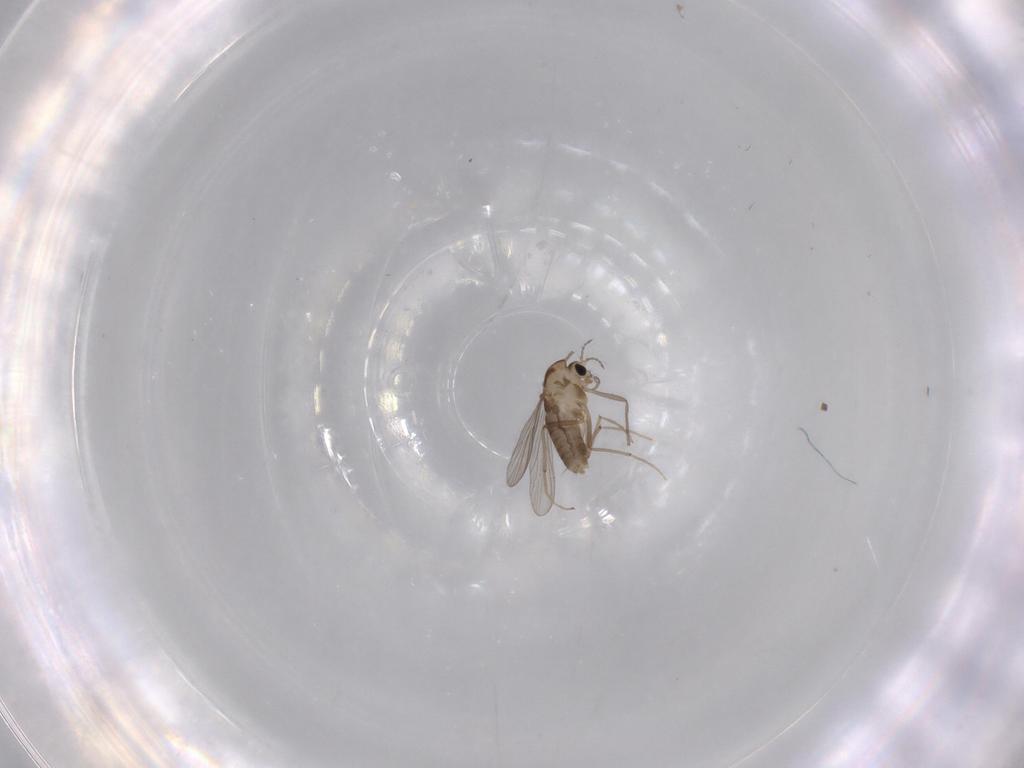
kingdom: Animalia
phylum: Arthropoda
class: Insecta
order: Diptera
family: Chironomidae
